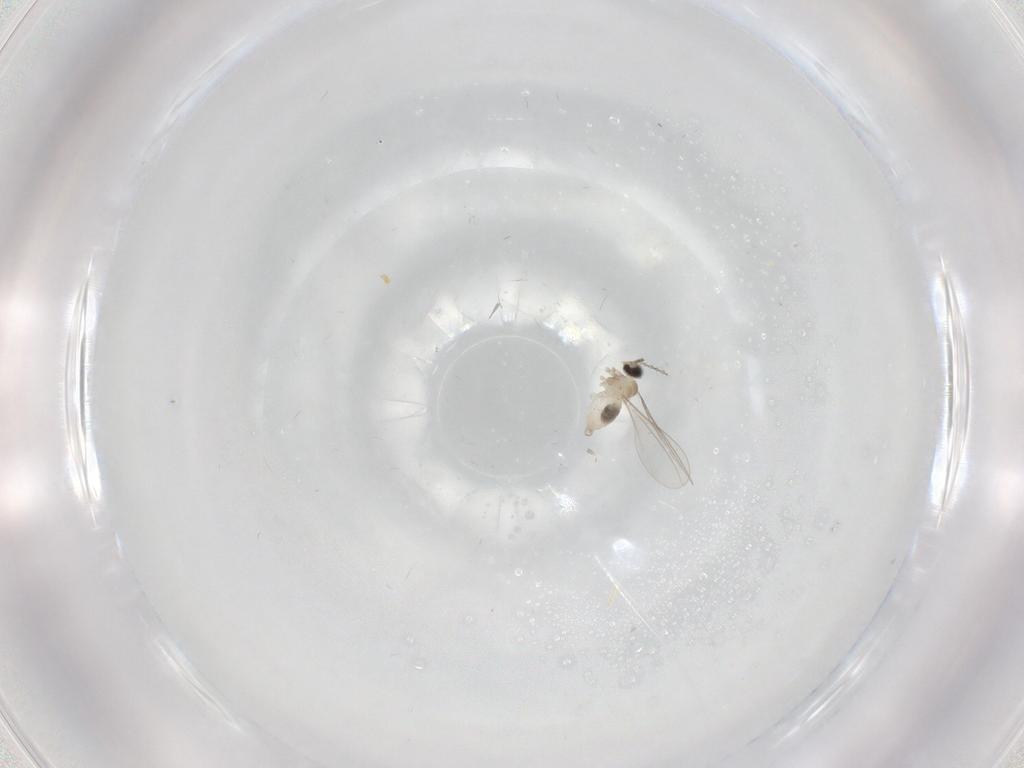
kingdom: Animalia
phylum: Arthropoda
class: Insecta
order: Diptera
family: Cecidomyiidae
